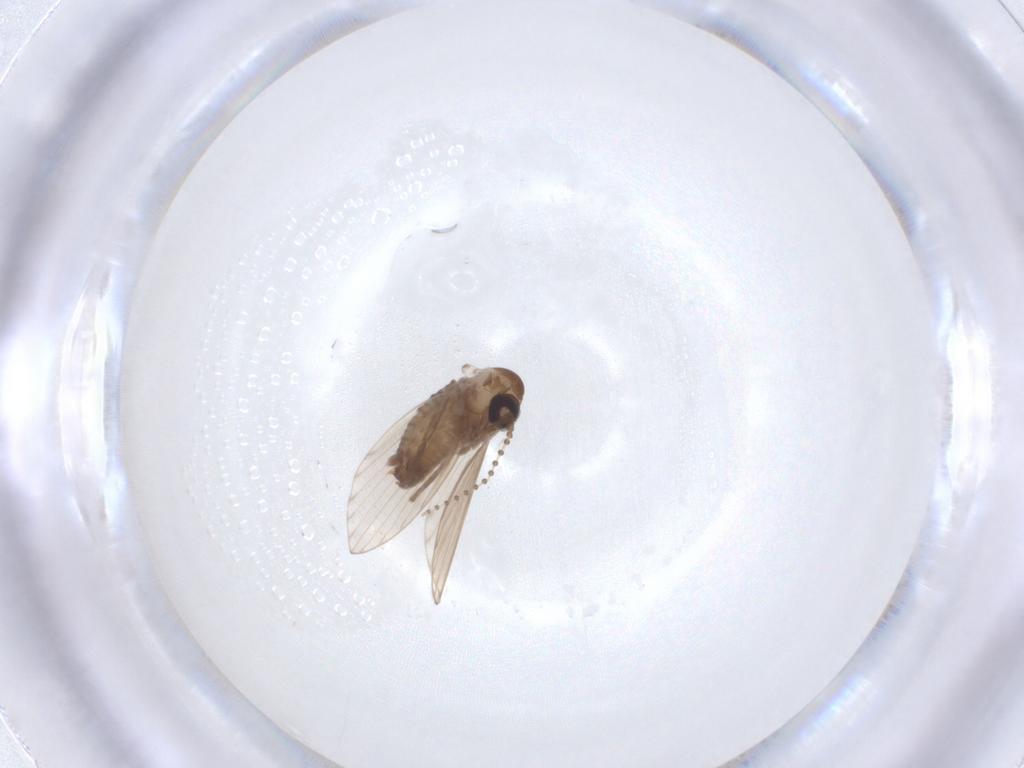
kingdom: Animalia
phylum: Arthropoda
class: Insecta
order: Diptera
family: Psychodidae
